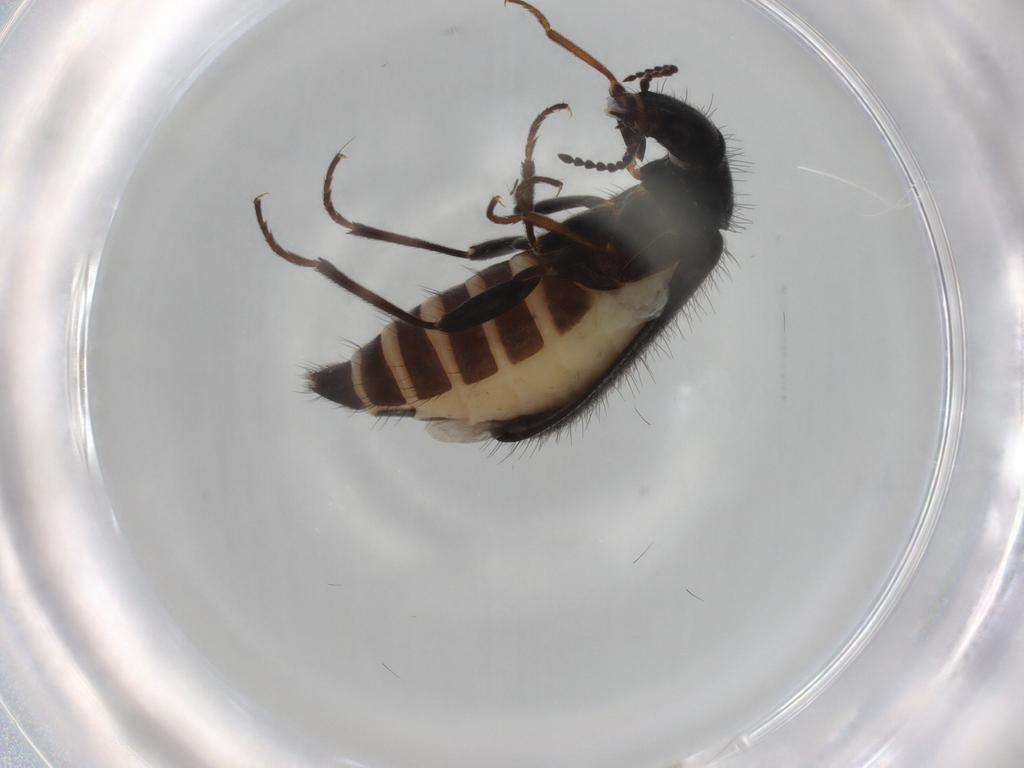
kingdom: Animalia
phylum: Arthropoda
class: Insecta
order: Coleoptera
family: Melyridae
